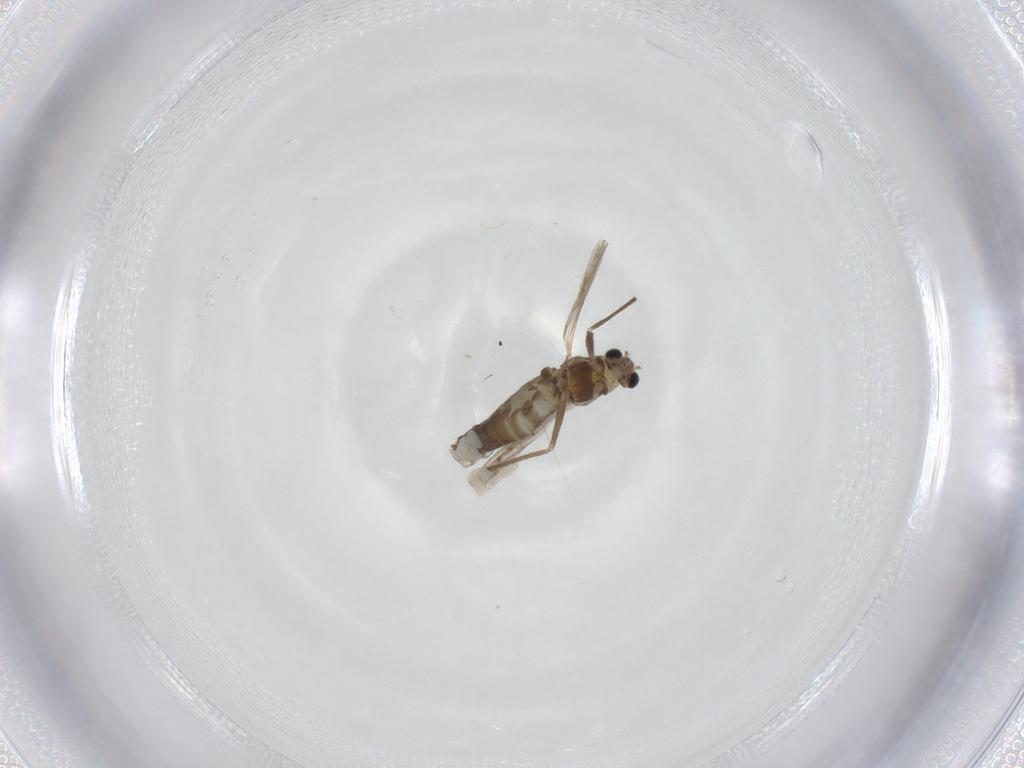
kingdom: Animalia
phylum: Arthropoda
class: Insecta
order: Diptera
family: Chironomidae
